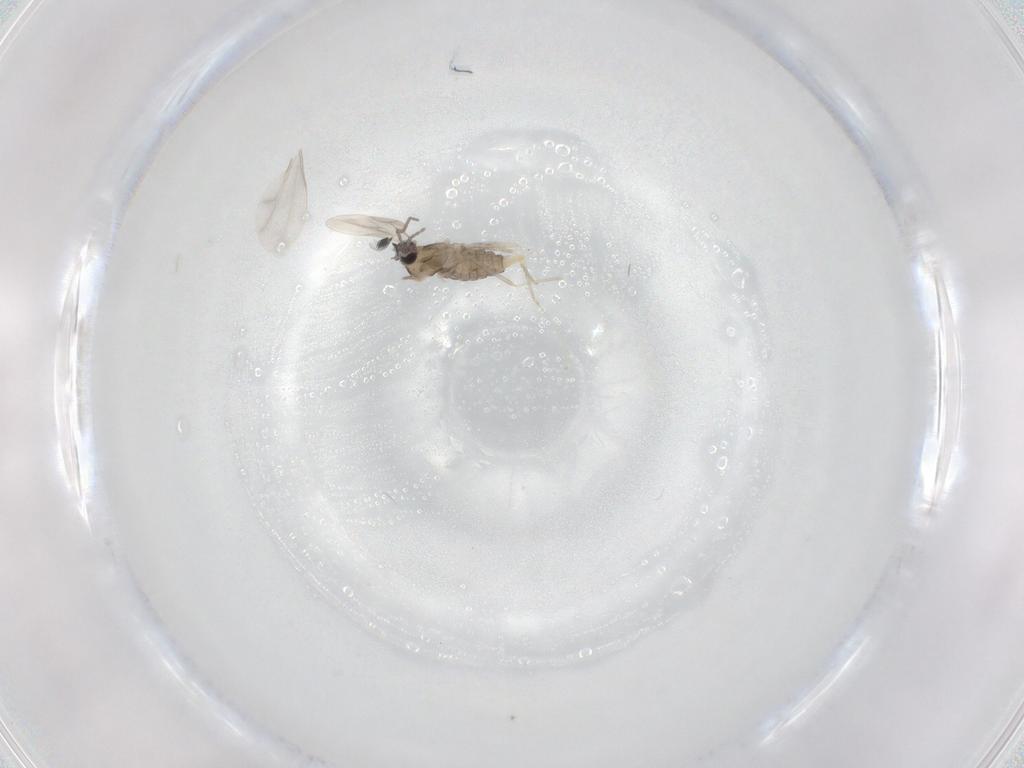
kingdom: Animalia
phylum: Arthropoda
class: Insecta
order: Diptera
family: Cecidomyiidae
